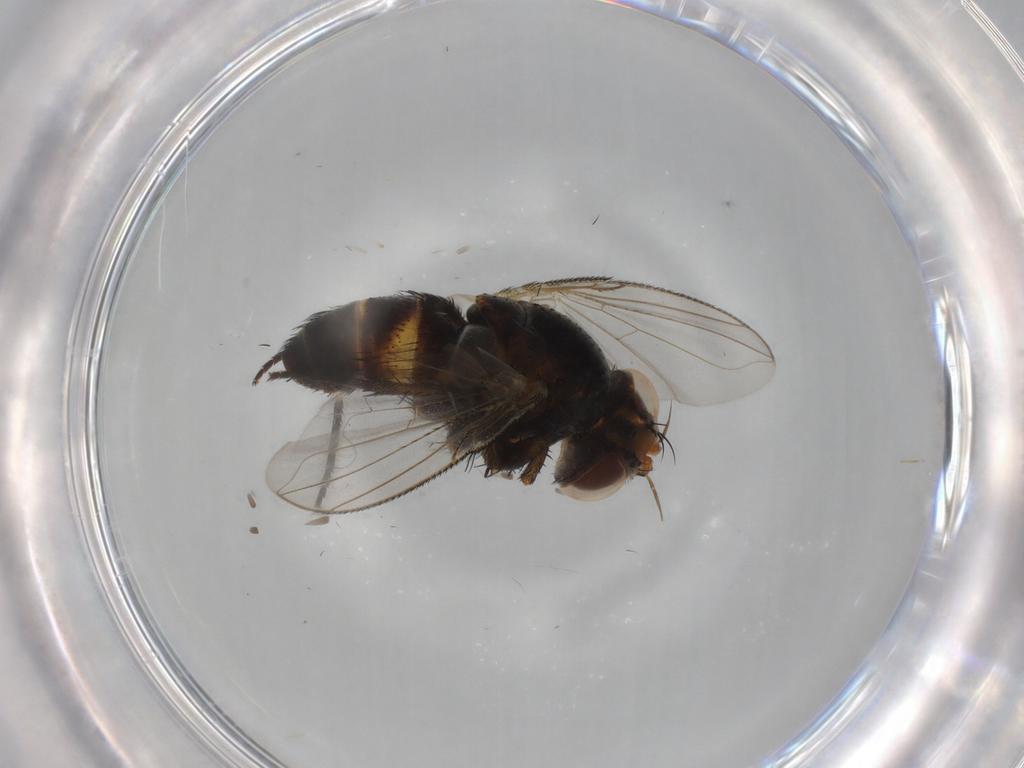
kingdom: Animalia
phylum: Arthropoda
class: Insecta
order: Diptera
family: Tachinidae
